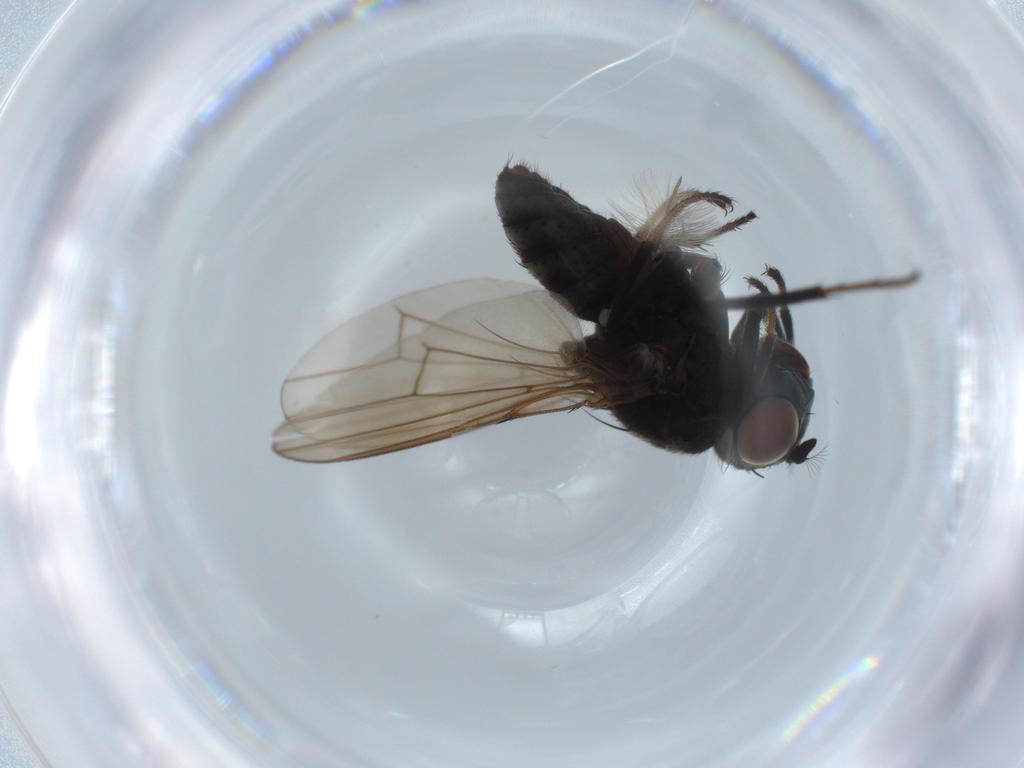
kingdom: Animalia
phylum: Arthropoda
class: Insecta
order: Diptera
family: Ephydridae
